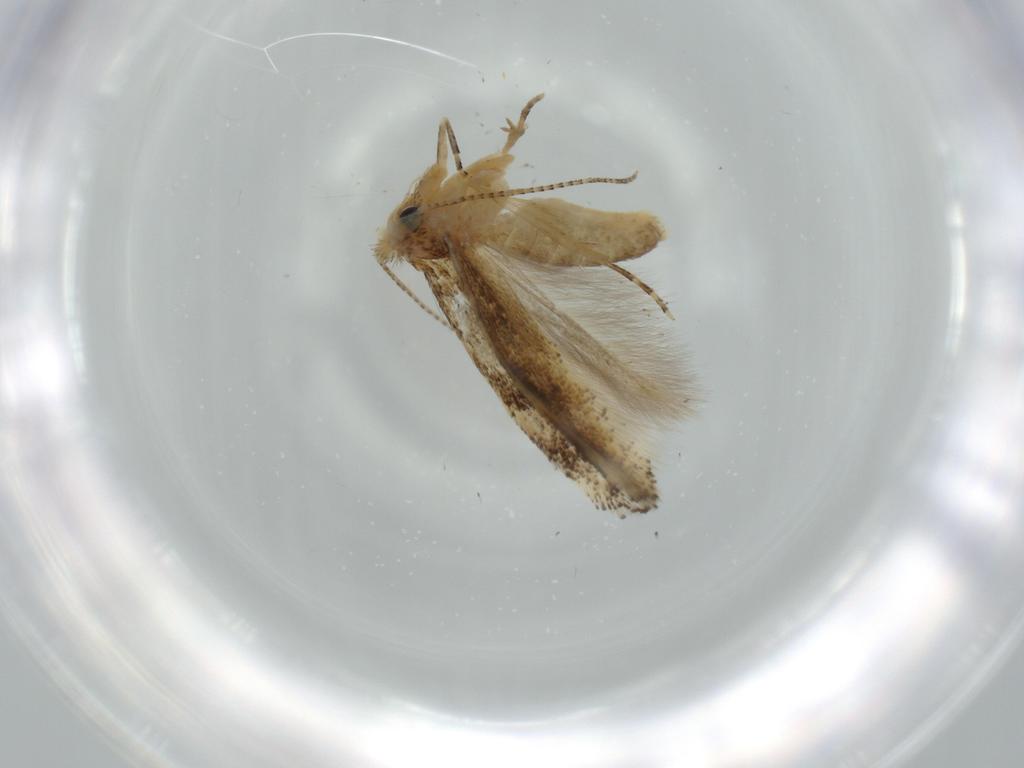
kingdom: Animalia
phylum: Arthropoda
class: Insecta
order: Lepidoptera
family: Bucculatricidae
